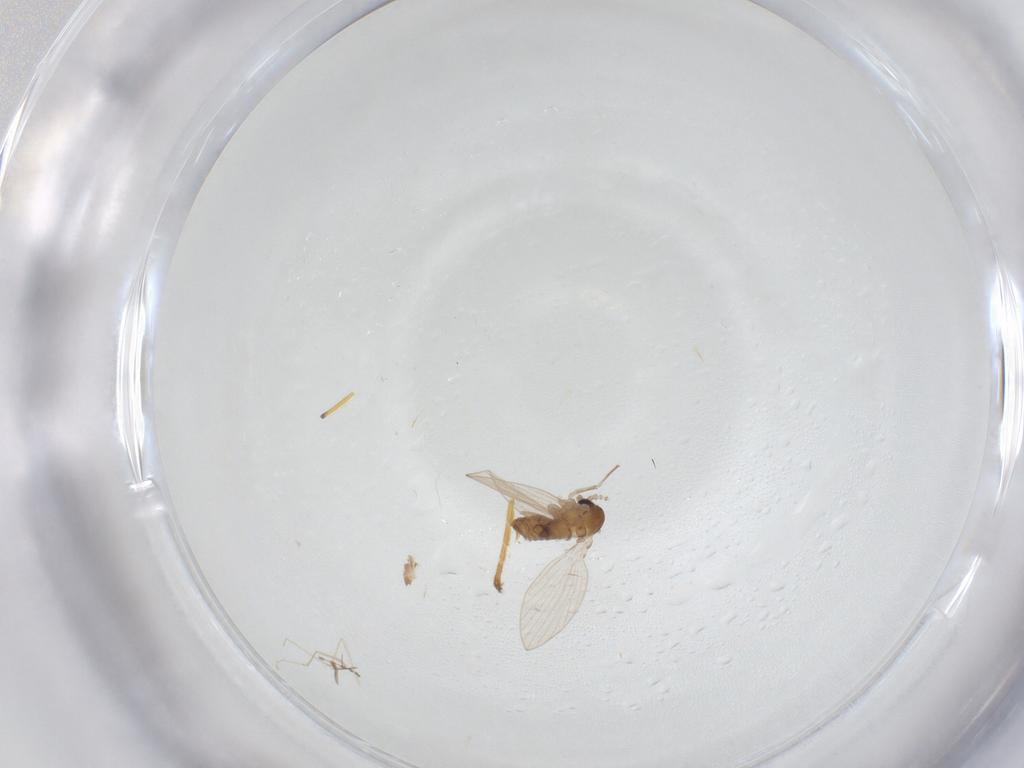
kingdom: Animalia
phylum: Arthropoda
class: Insecta
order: Diptera
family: Psychodidae
